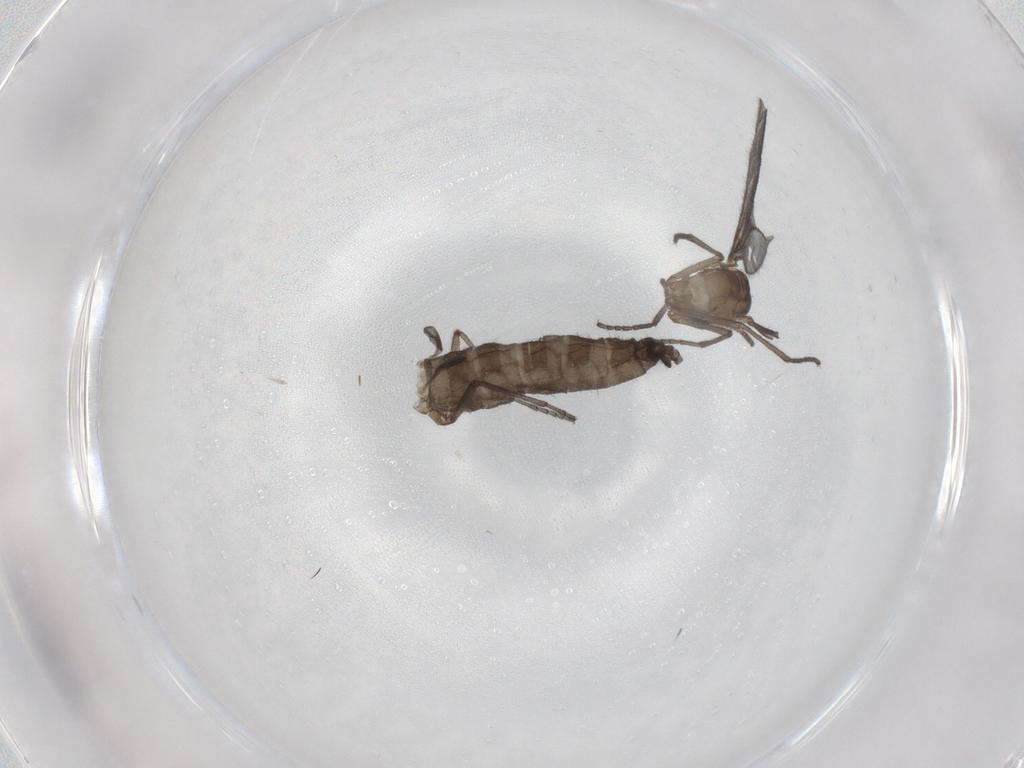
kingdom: Animalia
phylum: Arthropoda
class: Insecta
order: Diptera
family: Sciaridae
